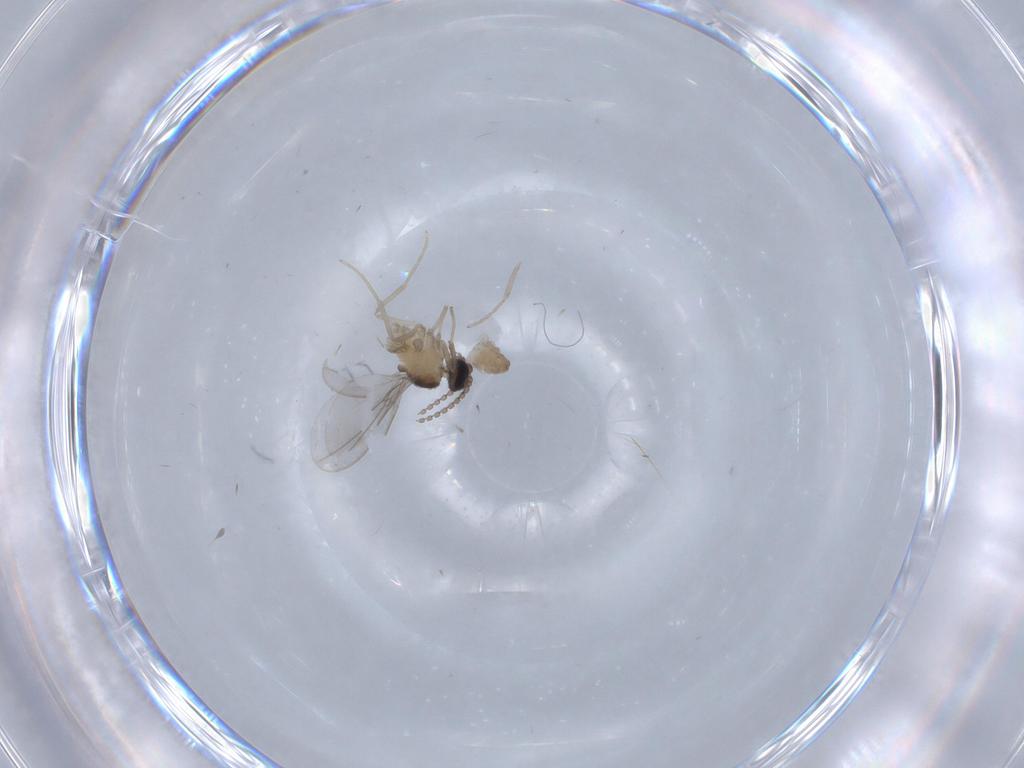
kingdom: Animalia
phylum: Arthropoda
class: Insecta
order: Diptera
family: Cecidomyiidae
